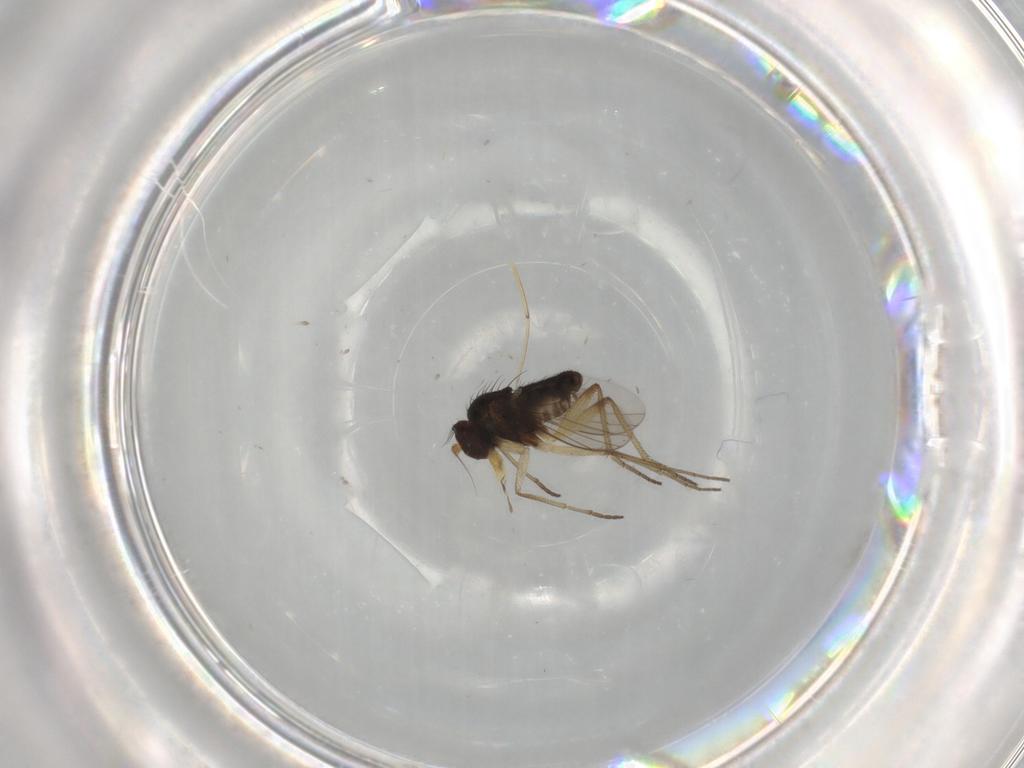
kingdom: Animalia
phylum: Arthropoda
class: Insecta
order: Diptera
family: Dolichopodidae
